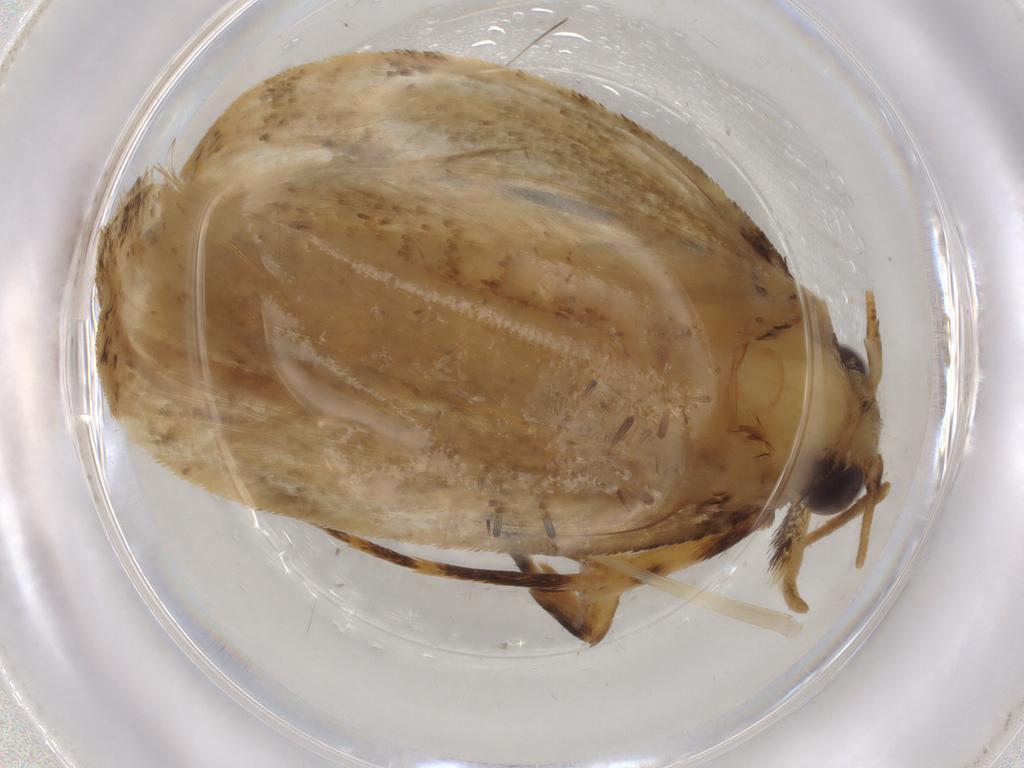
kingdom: Animalia
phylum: Arthropoda
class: Insecta
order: Lepidoptera
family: Tineidae
